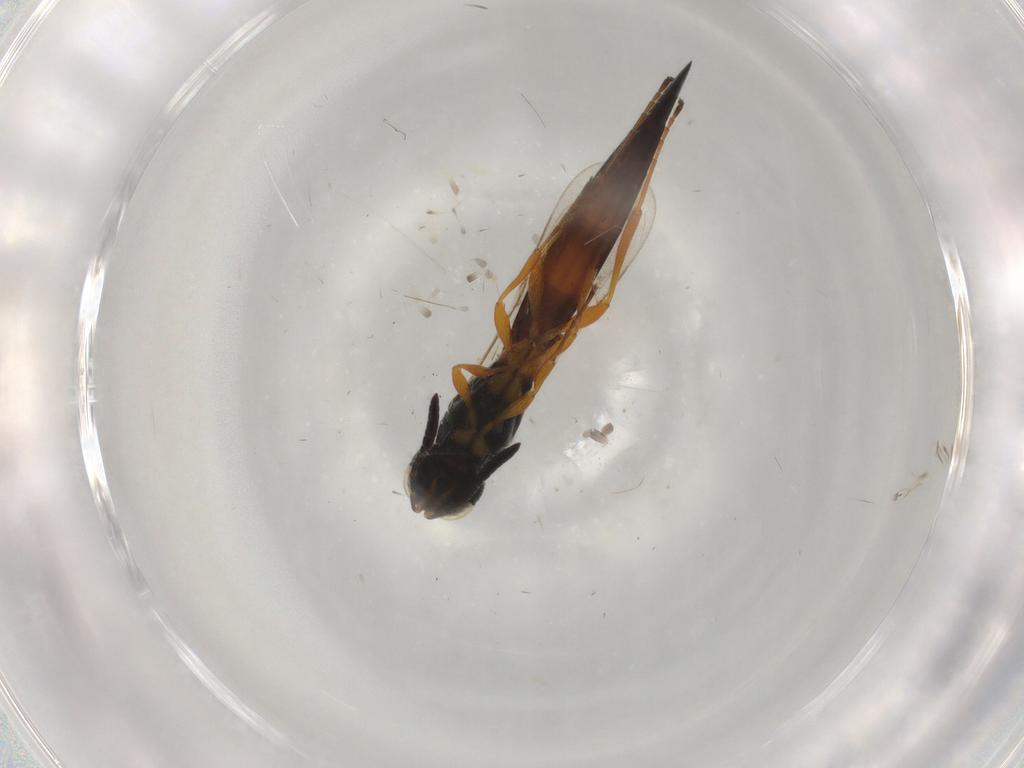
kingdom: Animalia
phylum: Arthropoda
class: Insecta
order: Hymenoptera
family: Scelionidae
